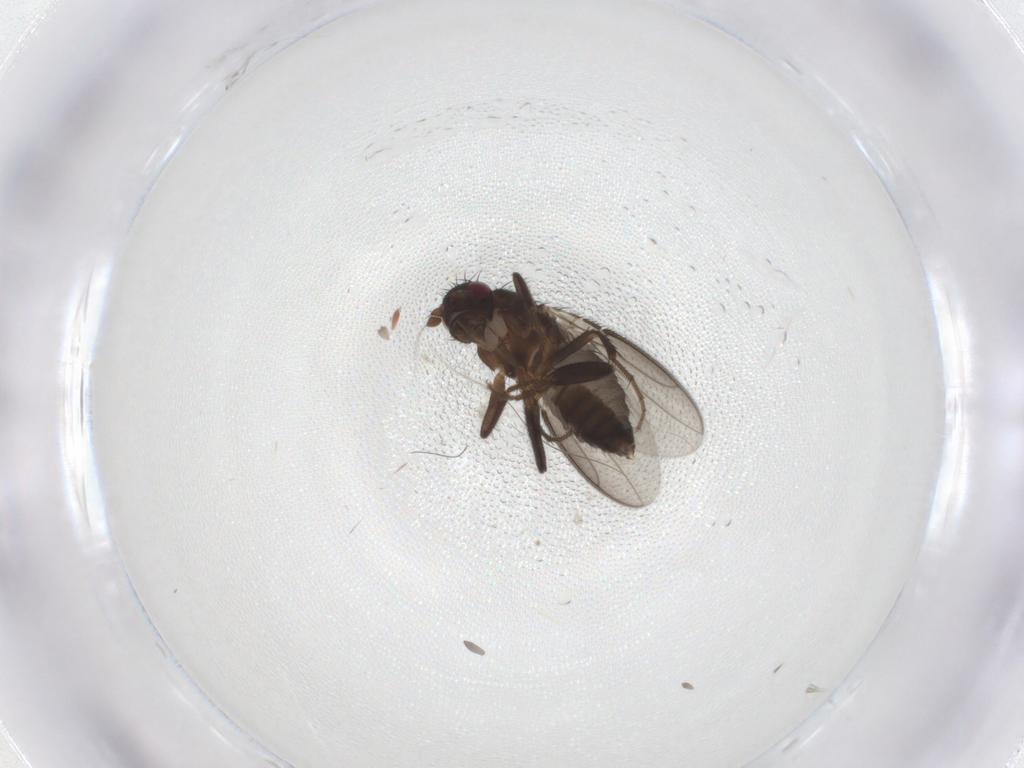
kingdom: Animalia
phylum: Arthropoda
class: Insecta
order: Diptera
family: Sphaeroceridae
